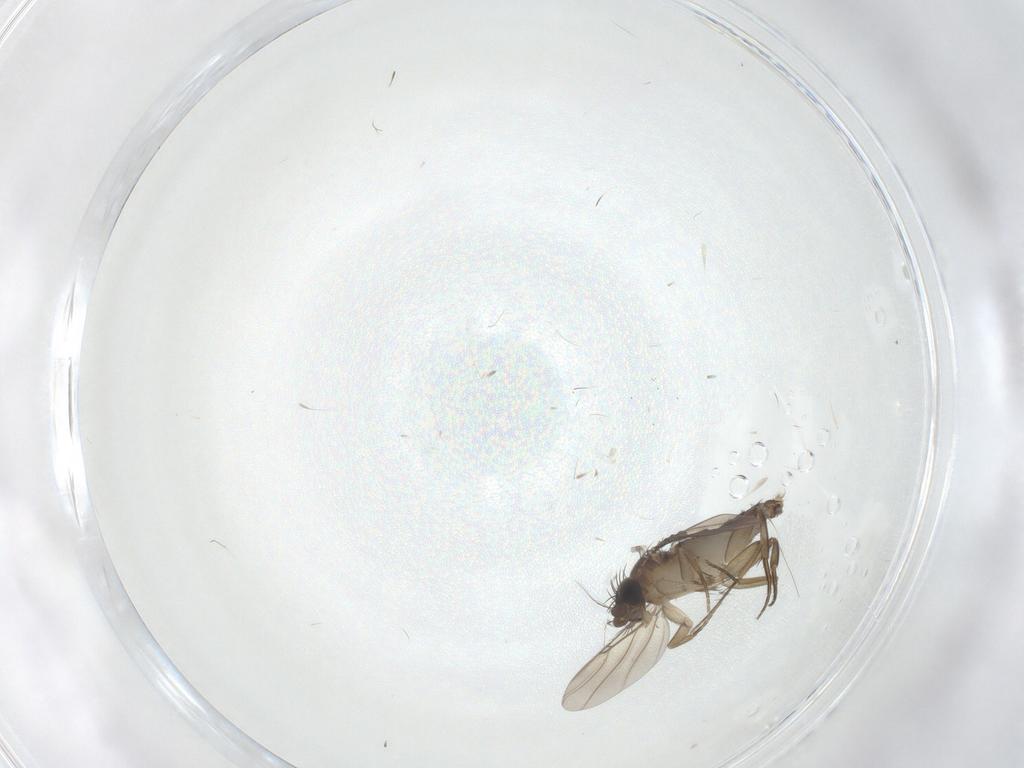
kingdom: Animalia
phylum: Arthropoda
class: Insecta
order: Diptera
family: Phoridae
